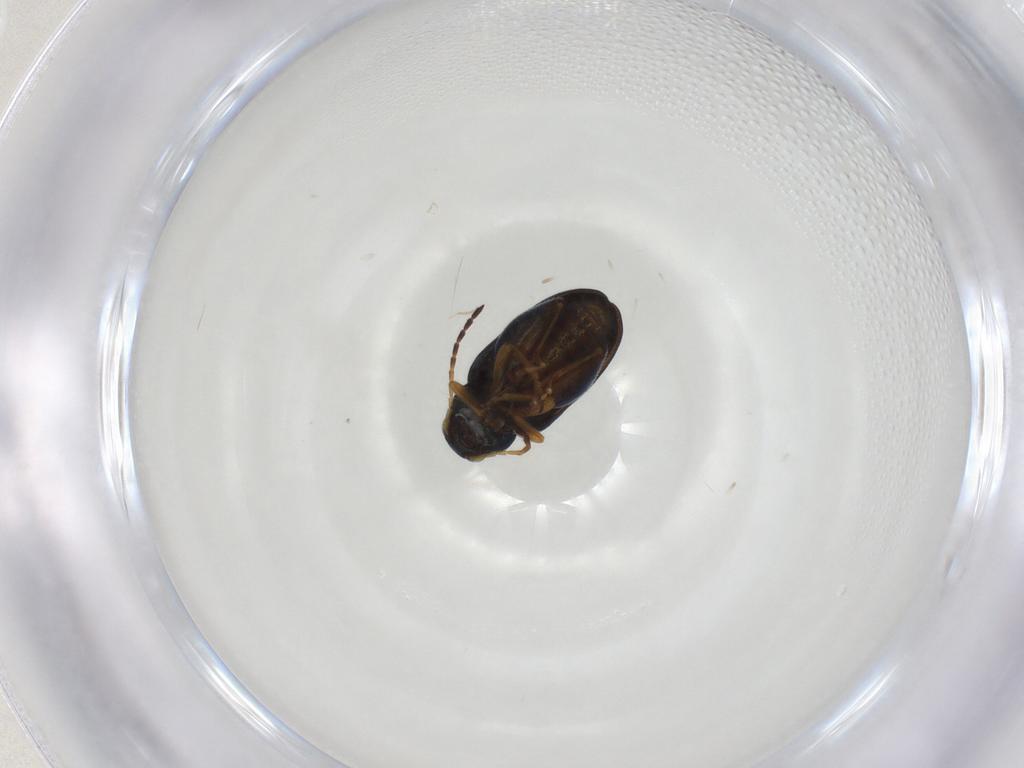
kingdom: Animalia
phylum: Arthropoda
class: Insecta
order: Coleoptera
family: Chrysomelidae
